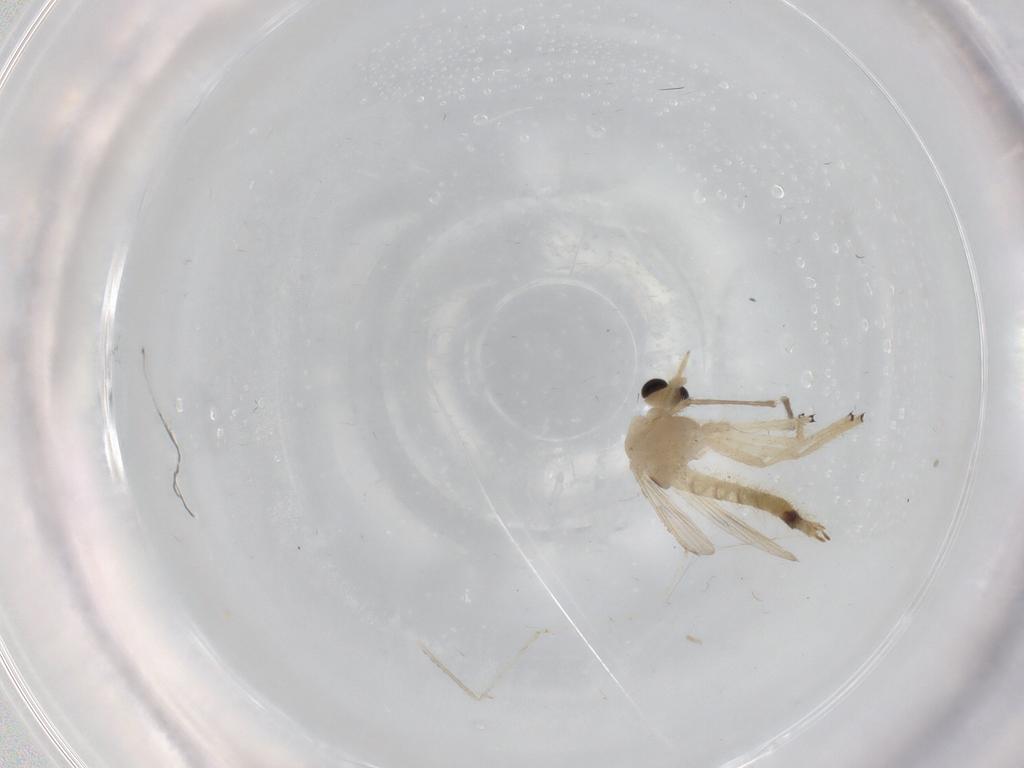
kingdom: Animalia
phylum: Arthropoda
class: Insecta
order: Diptera
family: Chironomidae
